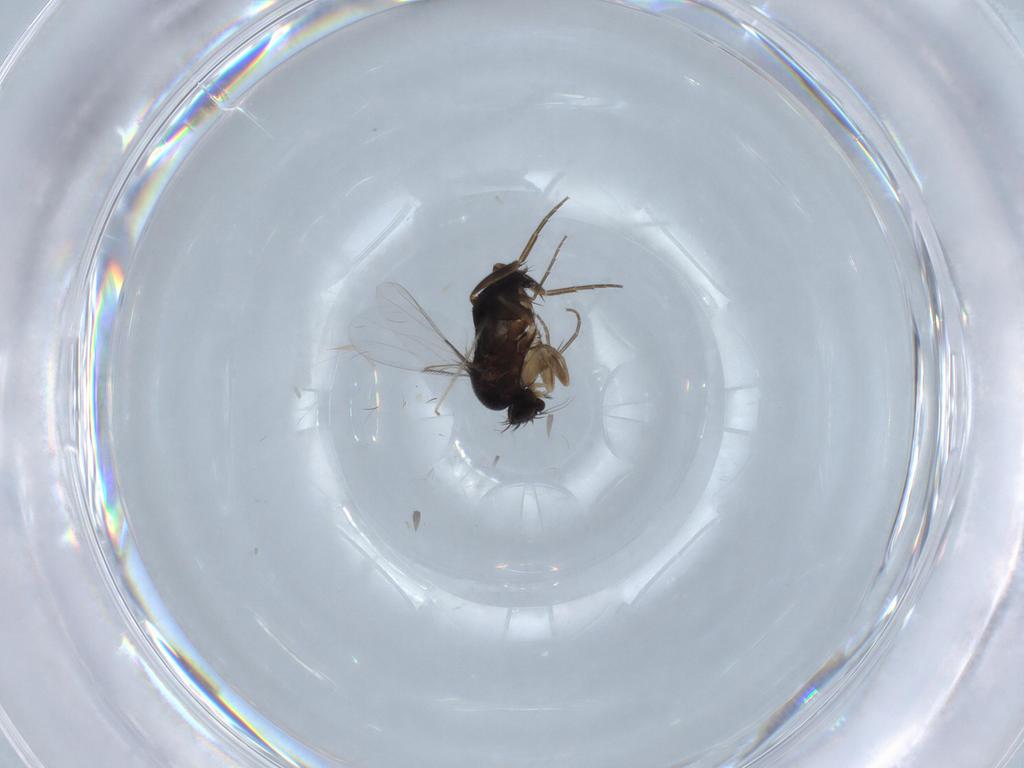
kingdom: Animalia
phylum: Arthropoda
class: Insecta
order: Diptera
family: Phoridae
